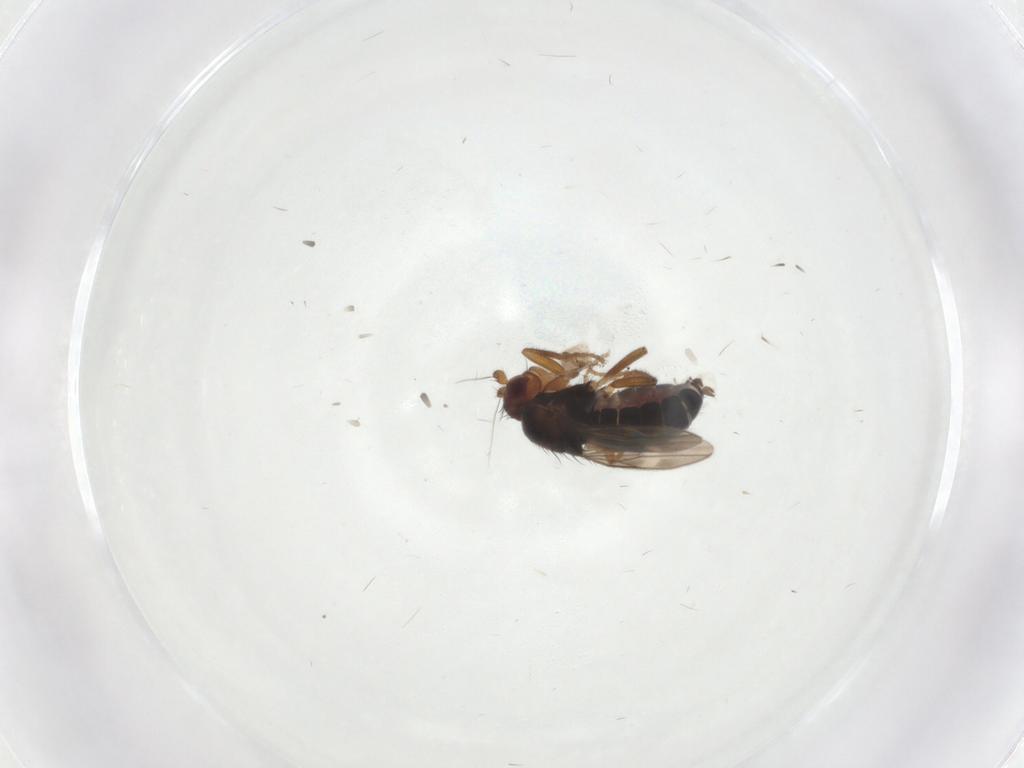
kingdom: Animalia
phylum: Arthropoda
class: Insecta
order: Diptera
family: Sphaeroceridae
